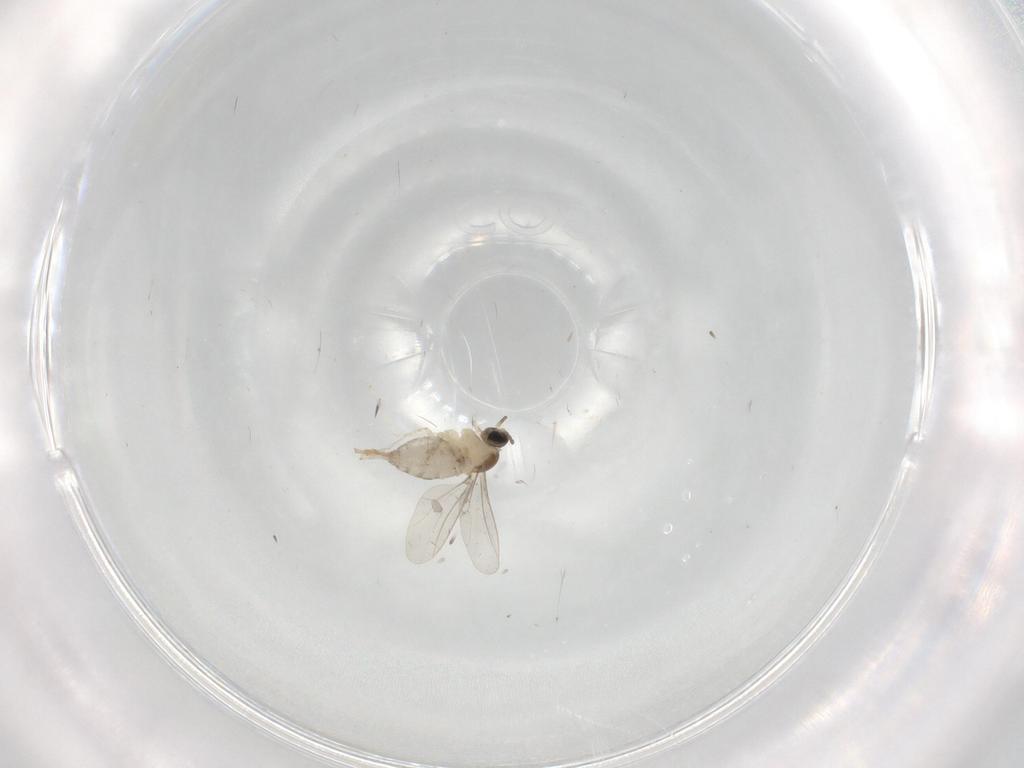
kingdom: Animalia
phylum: Arthropoda
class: Insecta
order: Diptera
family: Cecidomyiidae
